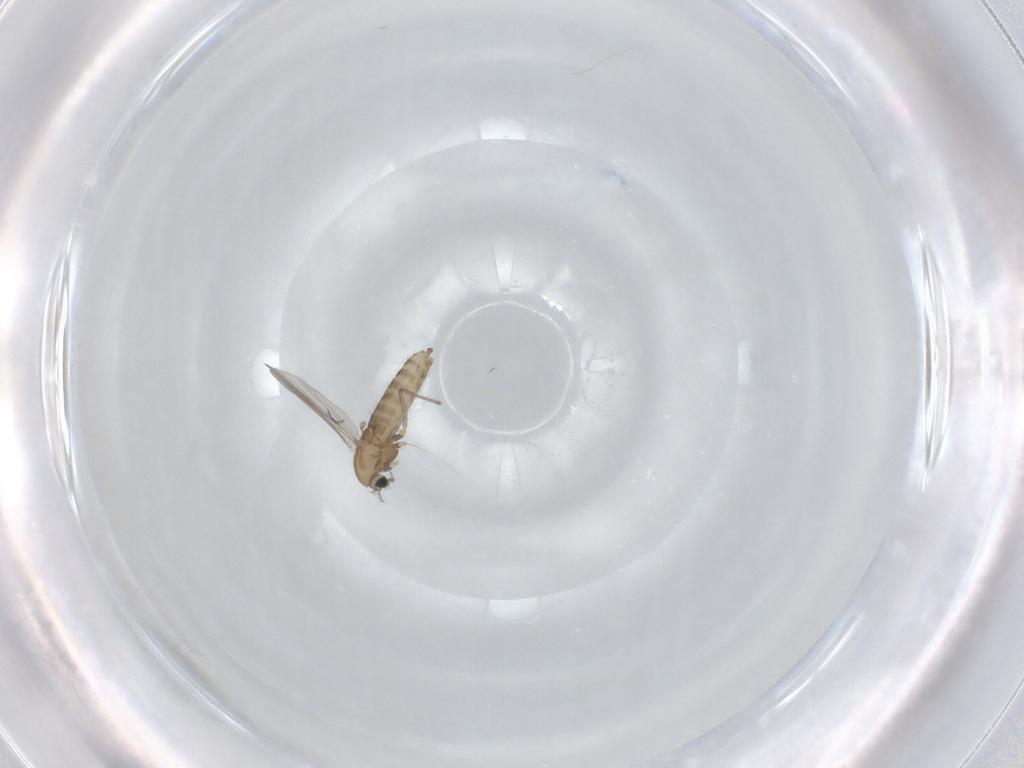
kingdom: Animalia
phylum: Arthropoda
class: Insecta
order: Diptera
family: Chironomidae
